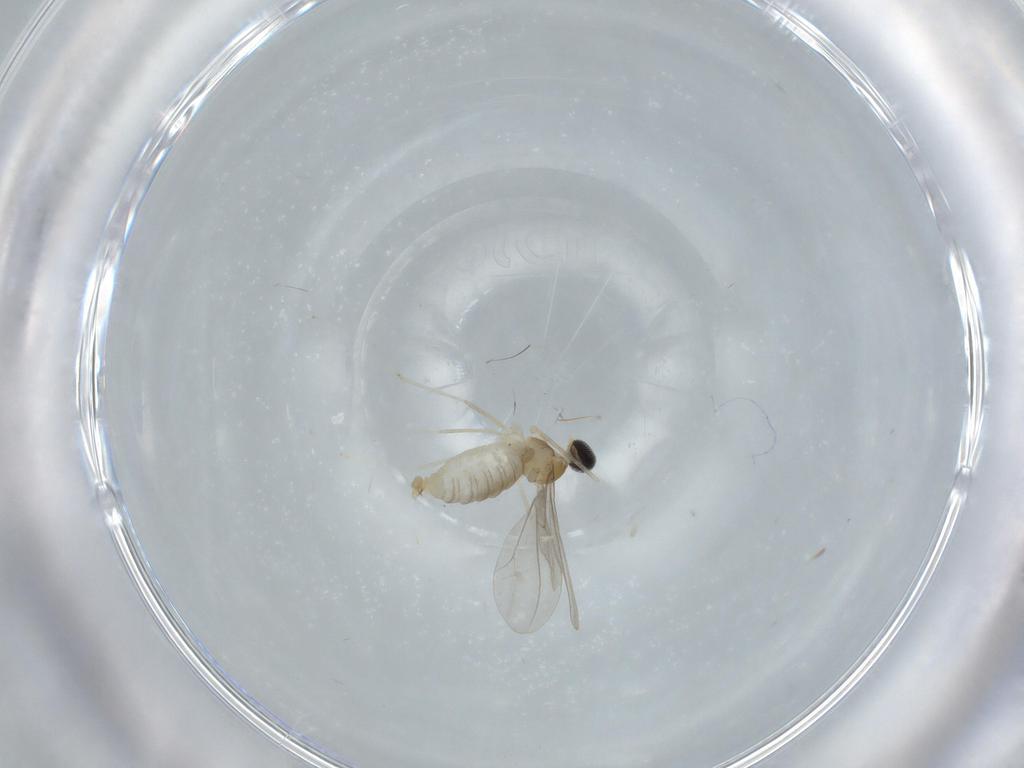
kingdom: Animalia
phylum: Arthropoda
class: Insecta
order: Diptera
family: Cecidomyiidae
